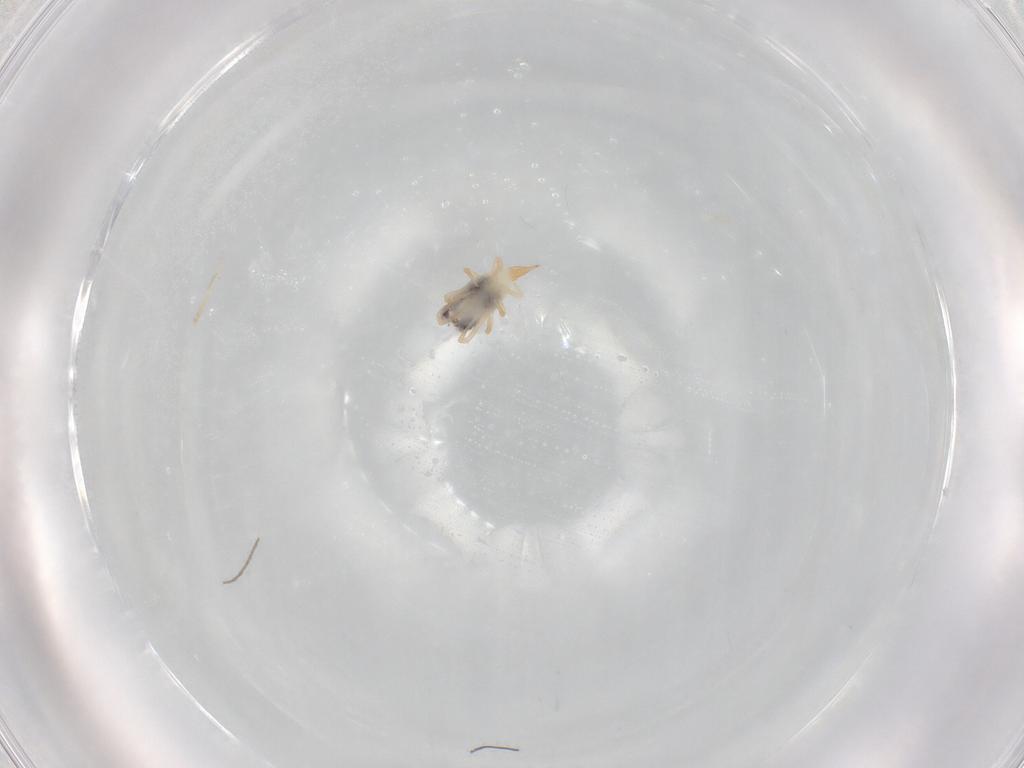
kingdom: Animalia
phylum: Arthropoda
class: Arachnida
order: Trombidiformes
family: Bdellidae
